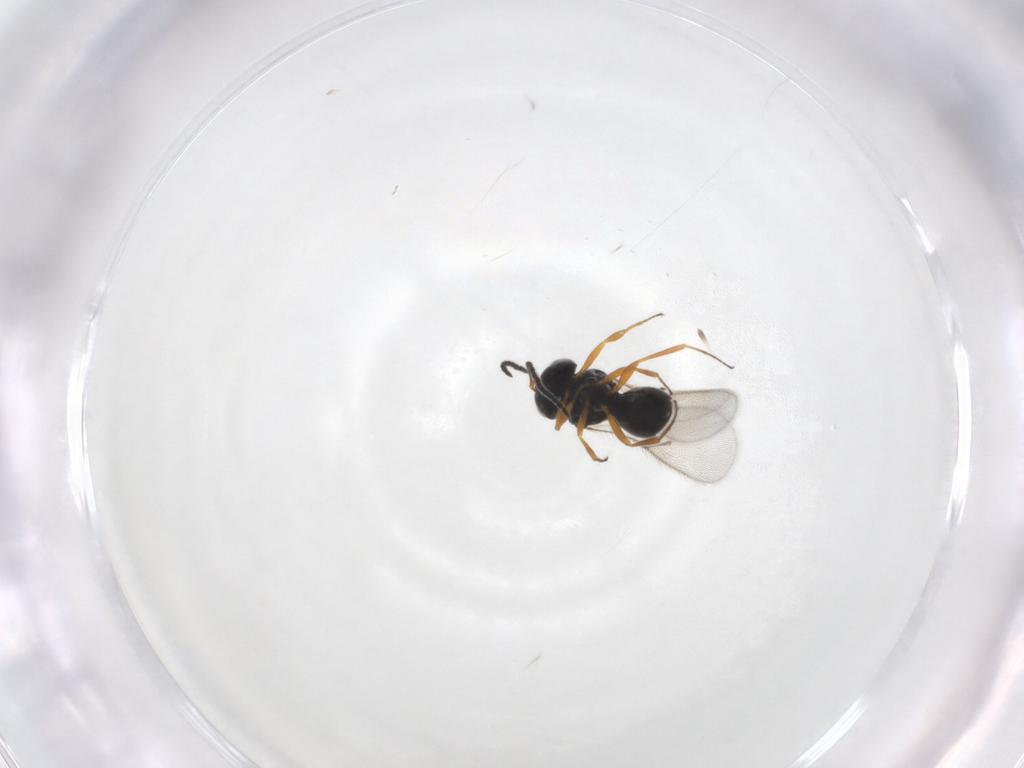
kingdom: Animalia
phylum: Arthropoda
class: Insecta
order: Hymenoptera
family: Scelionidae
